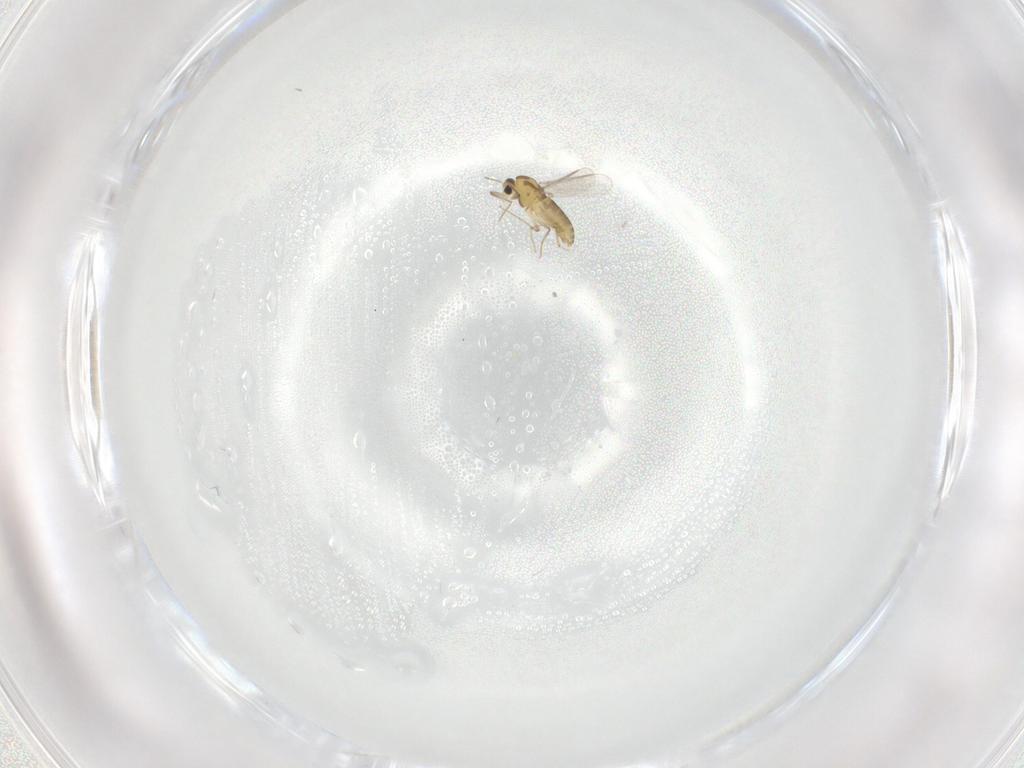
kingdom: Animalia
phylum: Arthropoda
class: Insecta
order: Diptera
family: Chironomidae
